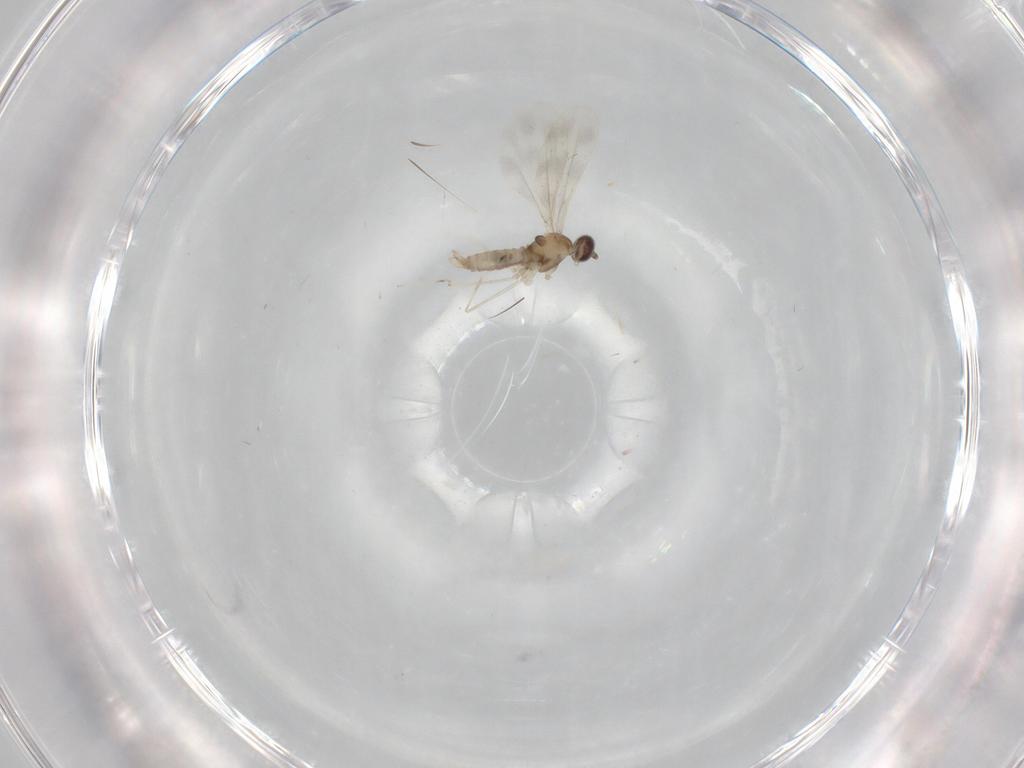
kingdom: Animalia
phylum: Arthropoda
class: Insecta
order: Diptera
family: Cecidomyiidae
